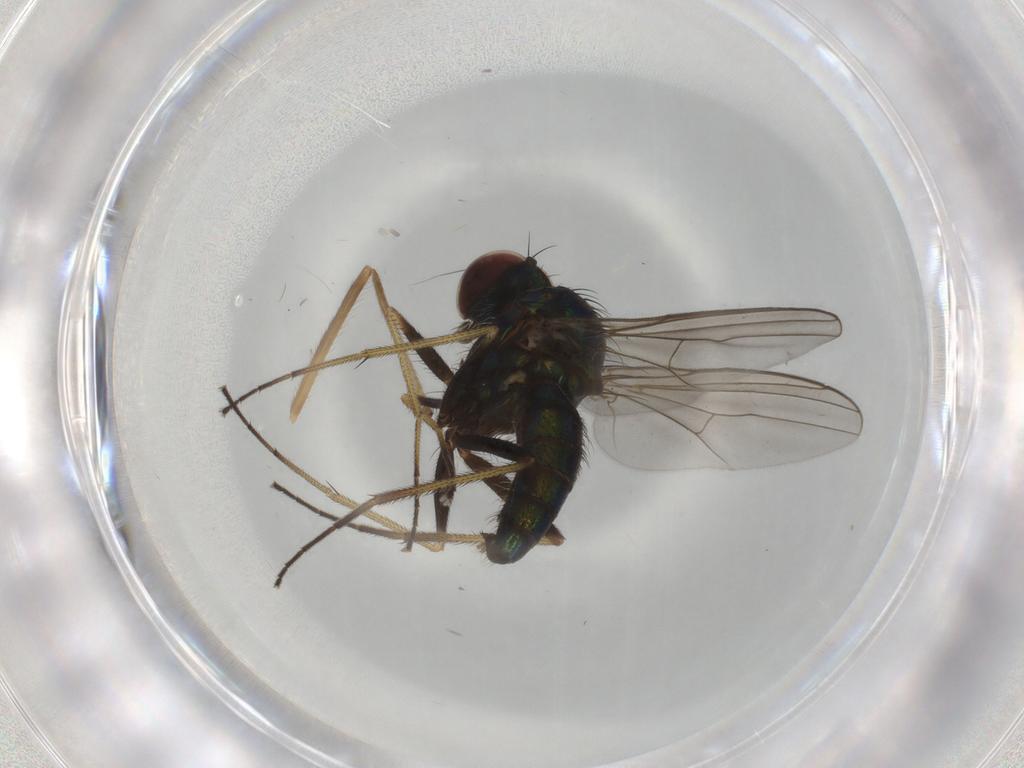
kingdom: Animalia
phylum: Arthropoda
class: Insecta
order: Diptera
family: Dolichopodidae
